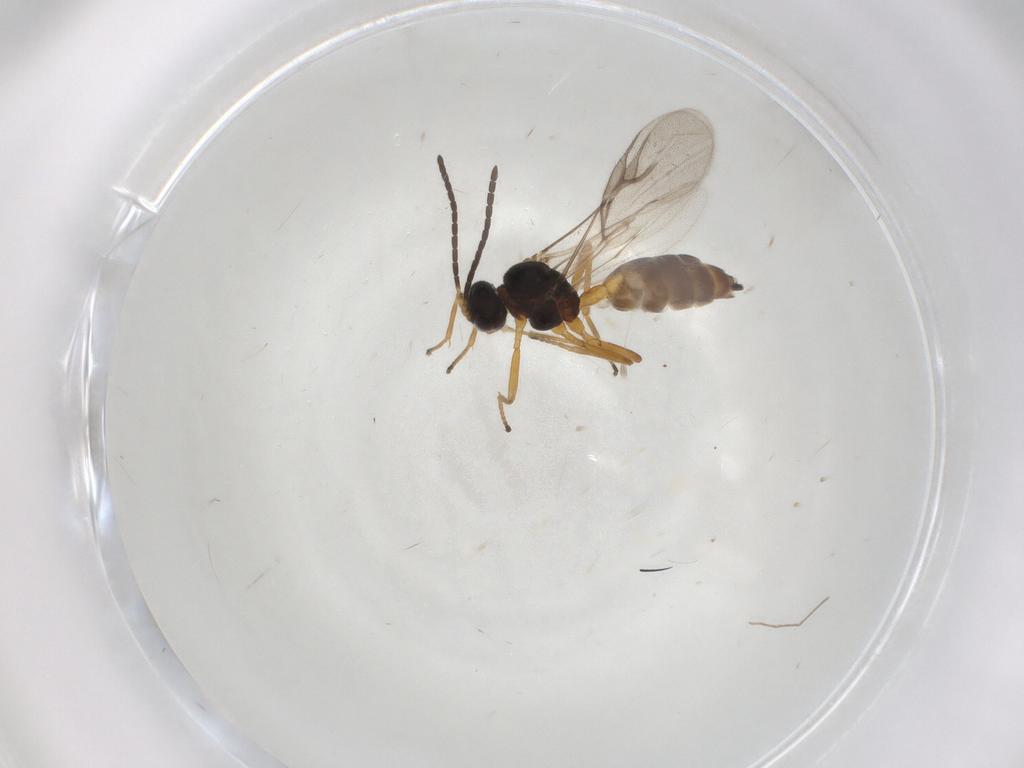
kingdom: Animalia
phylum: Arthropoda
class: Insecta
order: Hymenoptera
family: Braconidae
